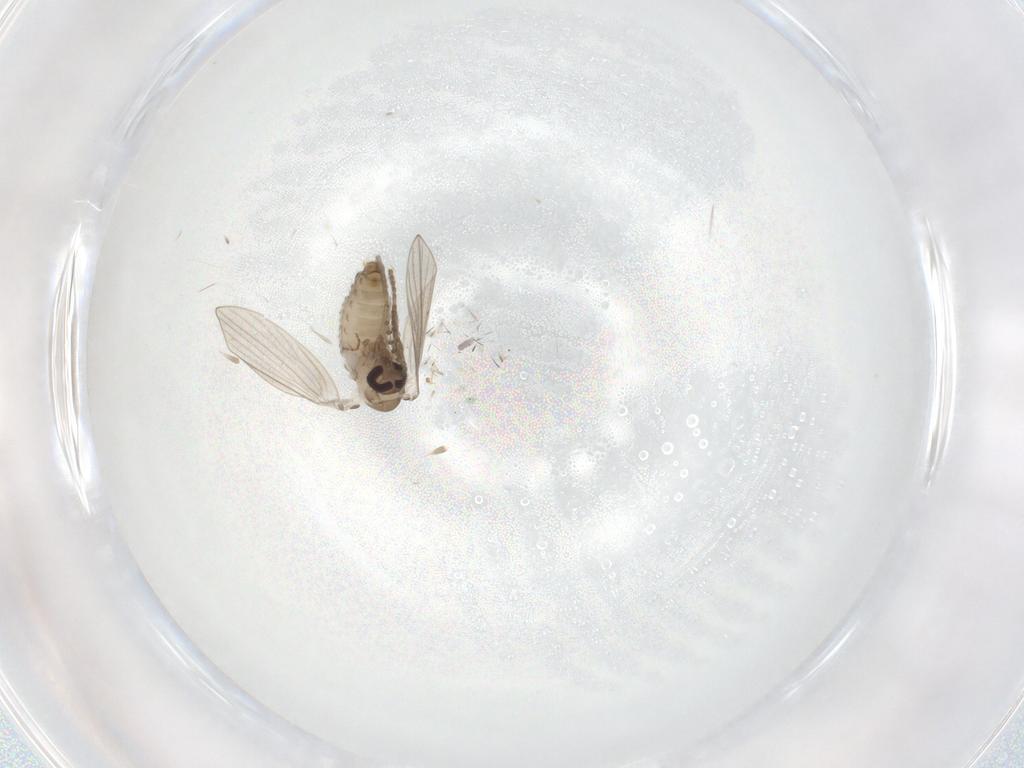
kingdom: Animalia
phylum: Arthropoda
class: Insecta
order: Diptera
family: Psychodidae
